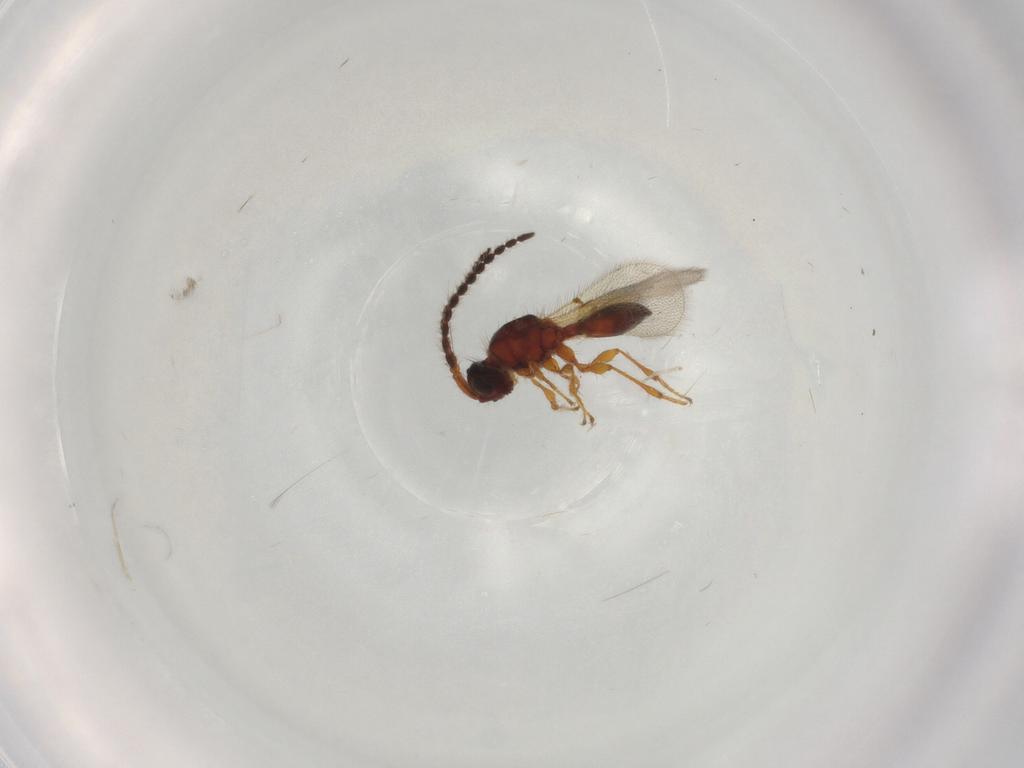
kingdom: Animalia
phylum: Arthropoda
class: Insecta
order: Hymenoptera
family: Diapriidae
